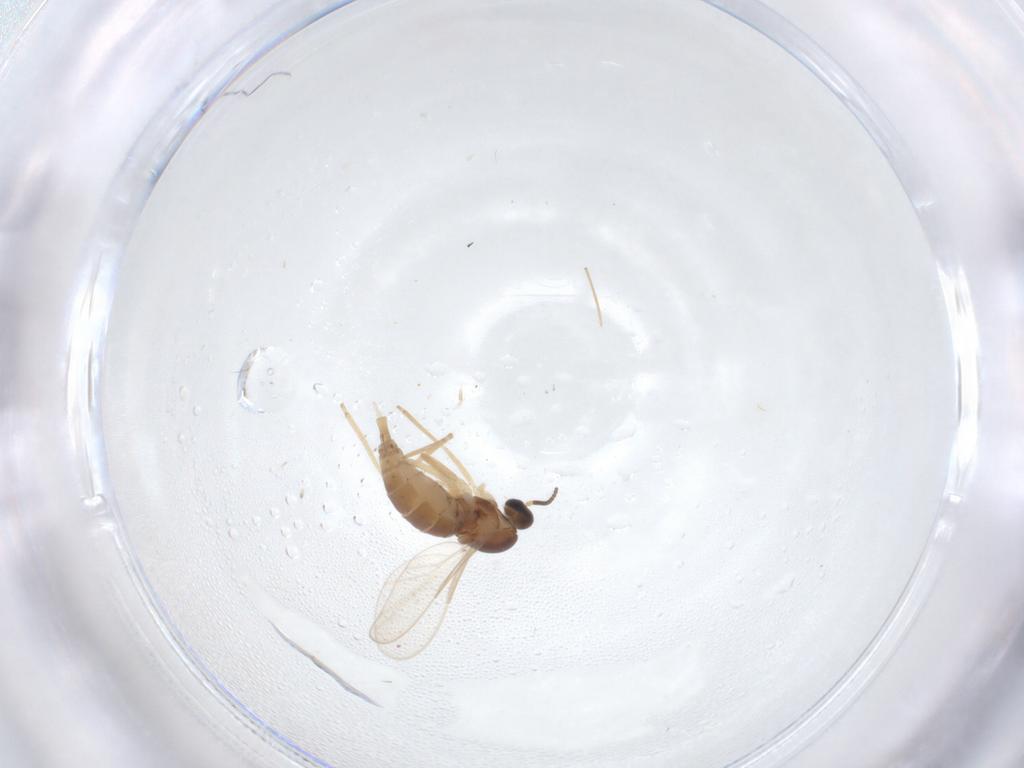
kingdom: Animalia
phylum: Arthropoda
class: Insecta
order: Diptera
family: Cecidomyiidae
